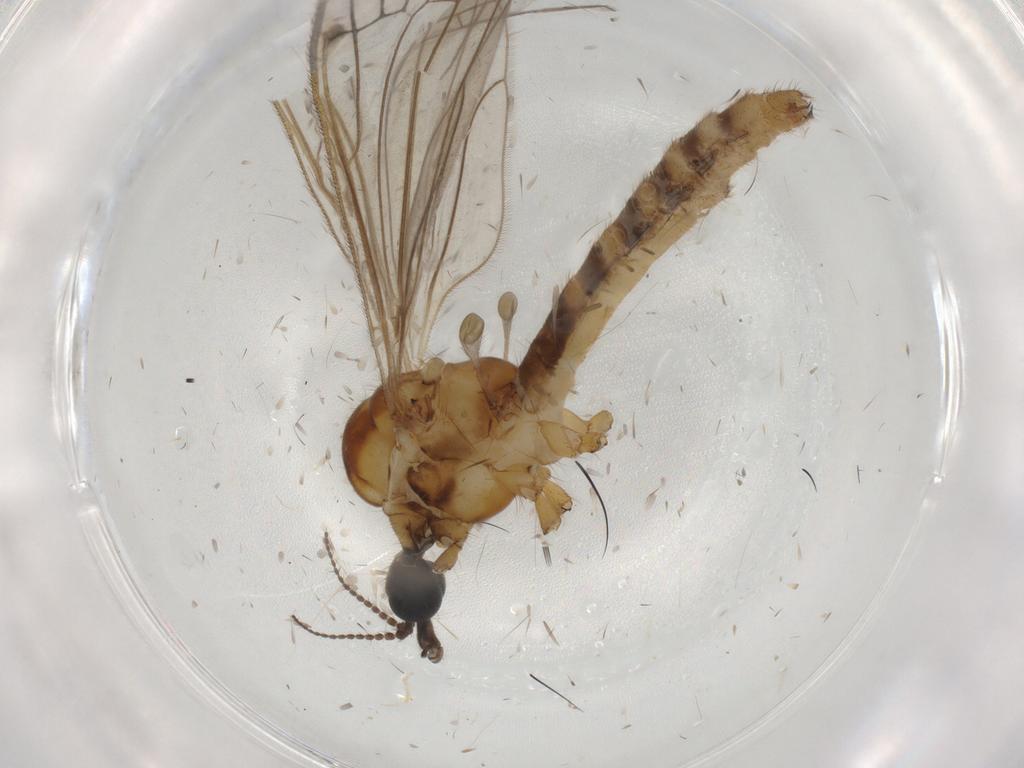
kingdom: Animalia
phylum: Arthropoda
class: Insecta
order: Diptera
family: Limoniidae
